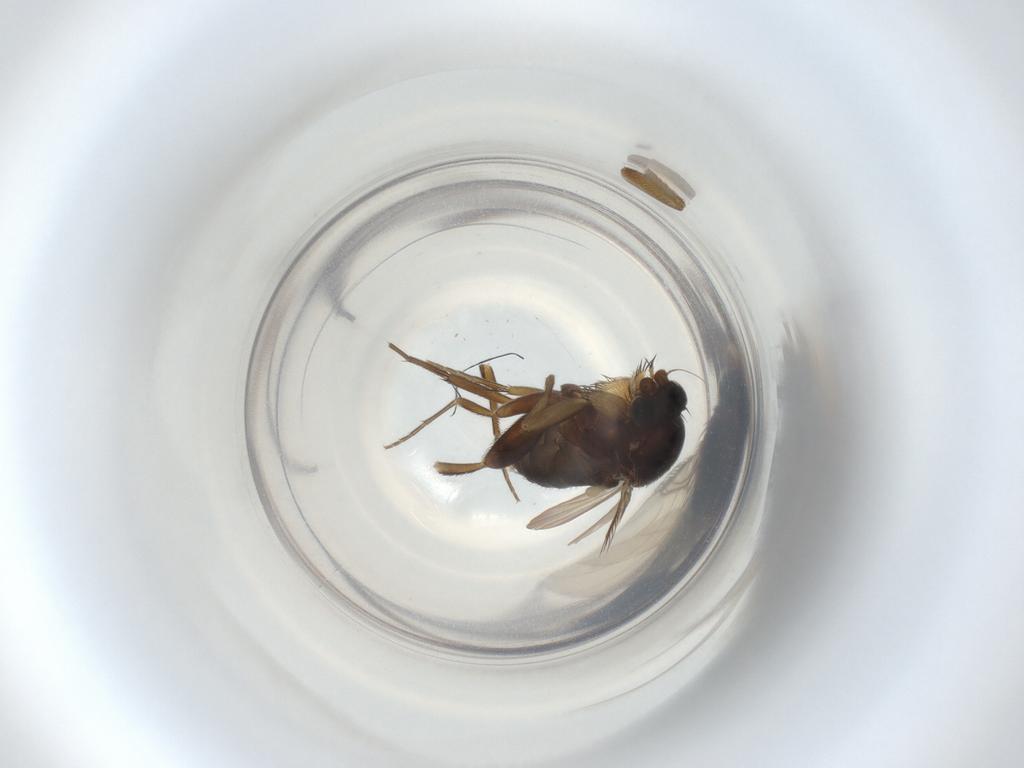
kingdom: Animalia
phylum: Arthropoda
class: Insecta
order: Diptera
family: Phoridae
